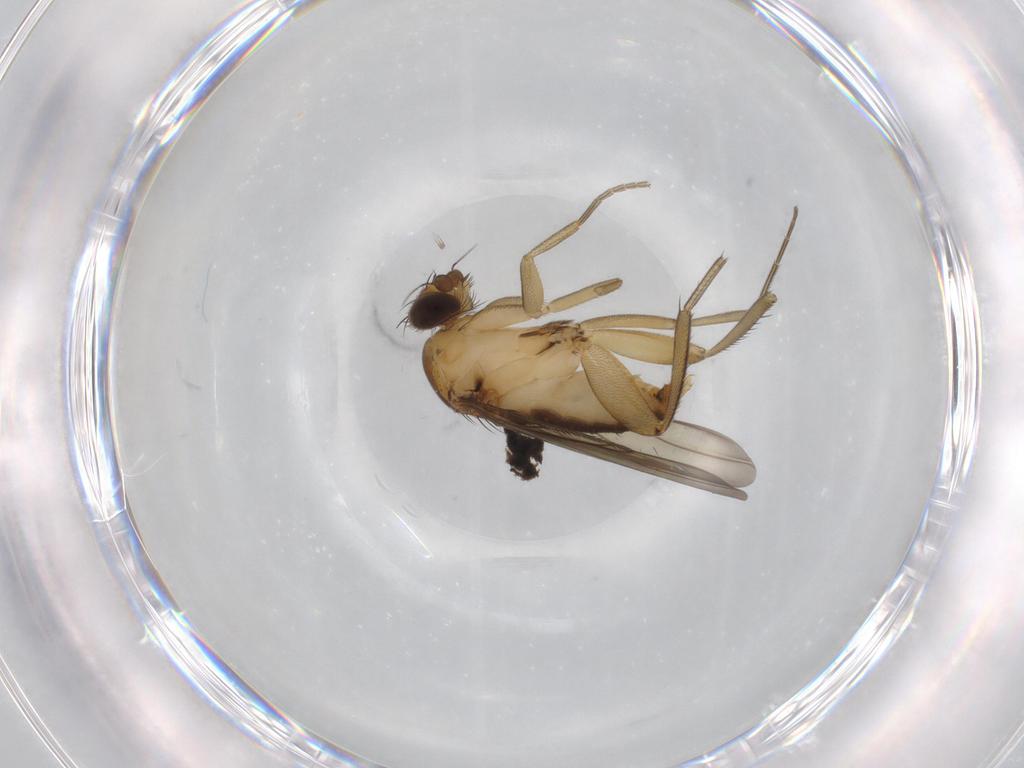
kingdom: Animalia
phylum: Arthropoda
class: Insecta
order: Diptera
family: Phoridae
